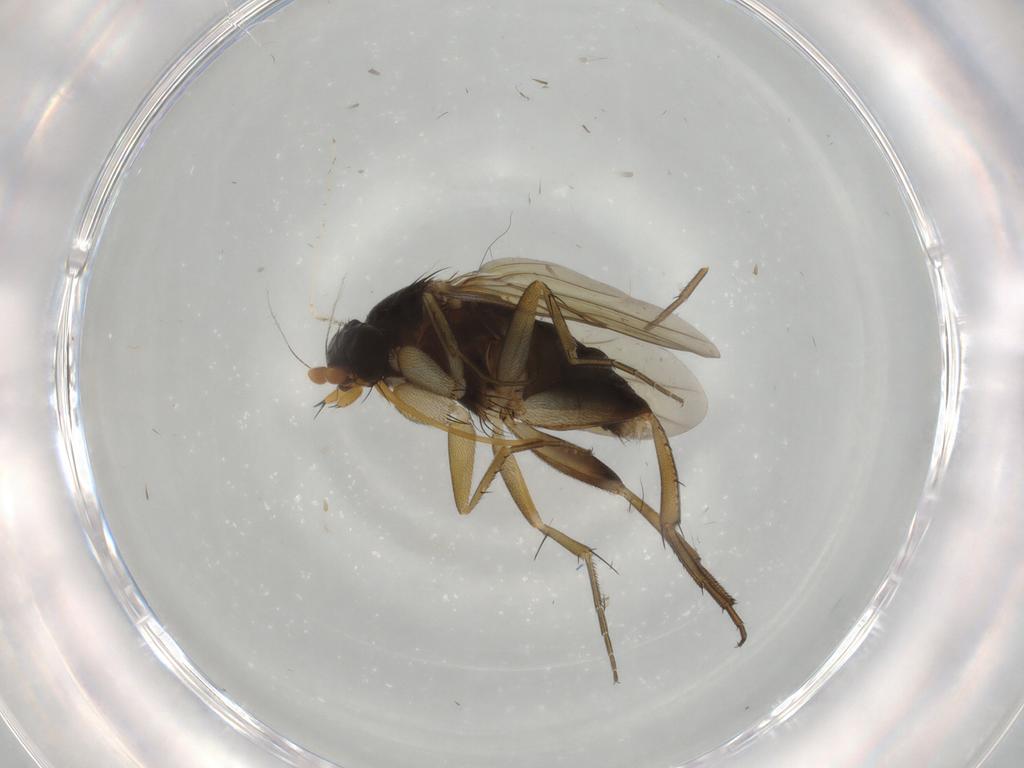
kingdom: Animalia
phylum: Arthropoda
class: Insecta
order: Diptera
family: Phoridae
